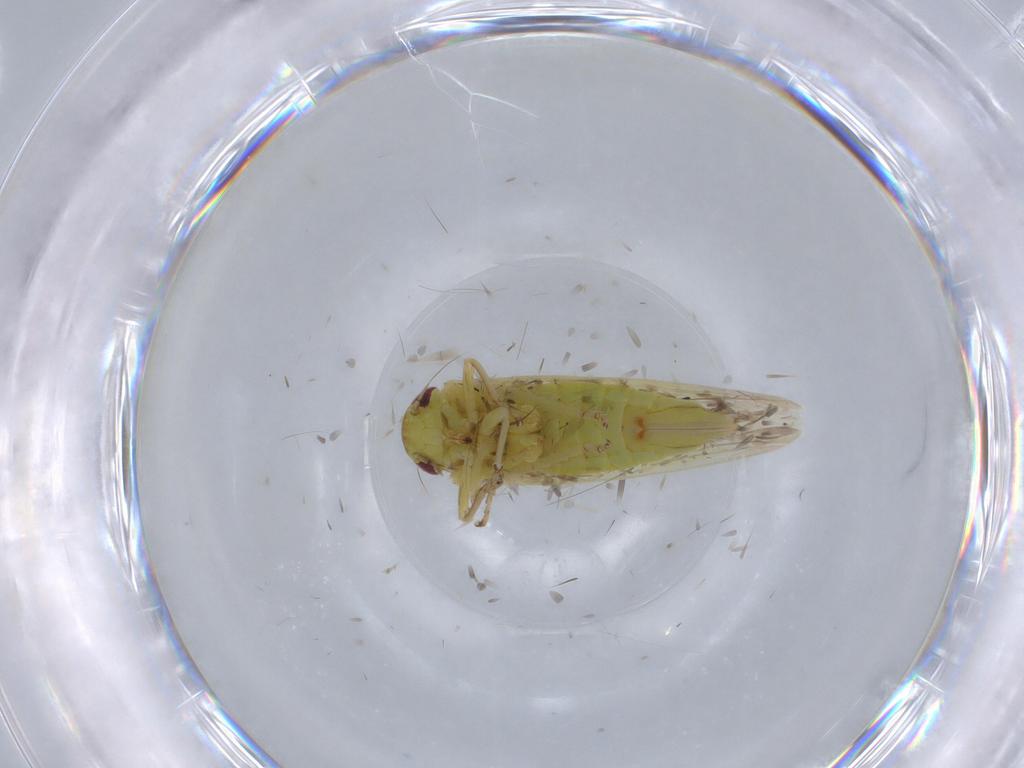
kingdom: Animalia
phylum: Arthropoda
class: Insecta
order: Hemiptera
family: Cicadellidae
